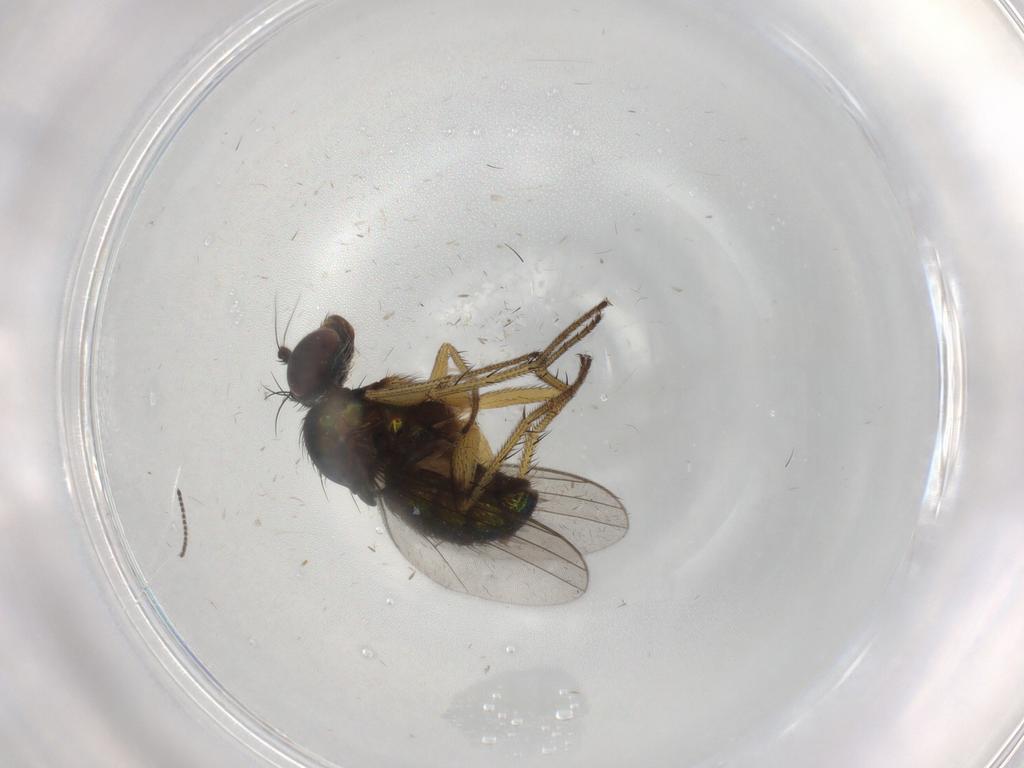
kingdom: Animalia
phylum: Arthropoda
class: Insecta
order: Diptera
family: Dolichopodidae
